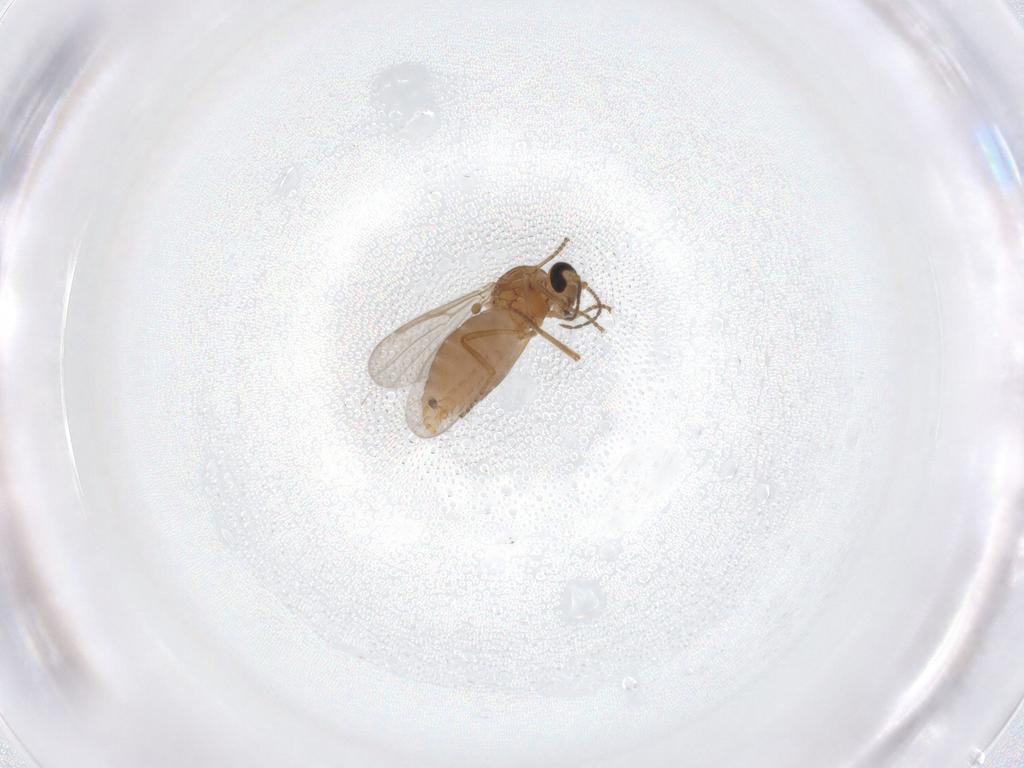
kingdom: Animalia
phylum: Arthropoda
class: Insecta
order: Diptera
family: Ceratopogonidae
